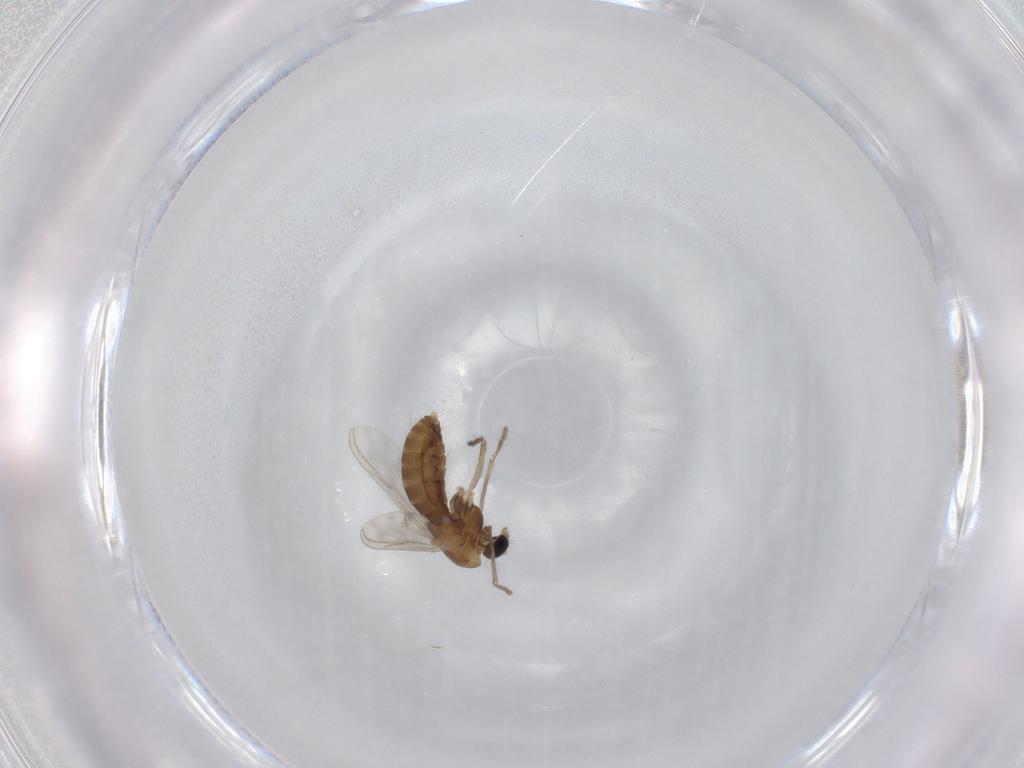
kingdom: Animalia
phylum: Arthropoda
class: Insecta
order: Diptera
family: Chironomidae
